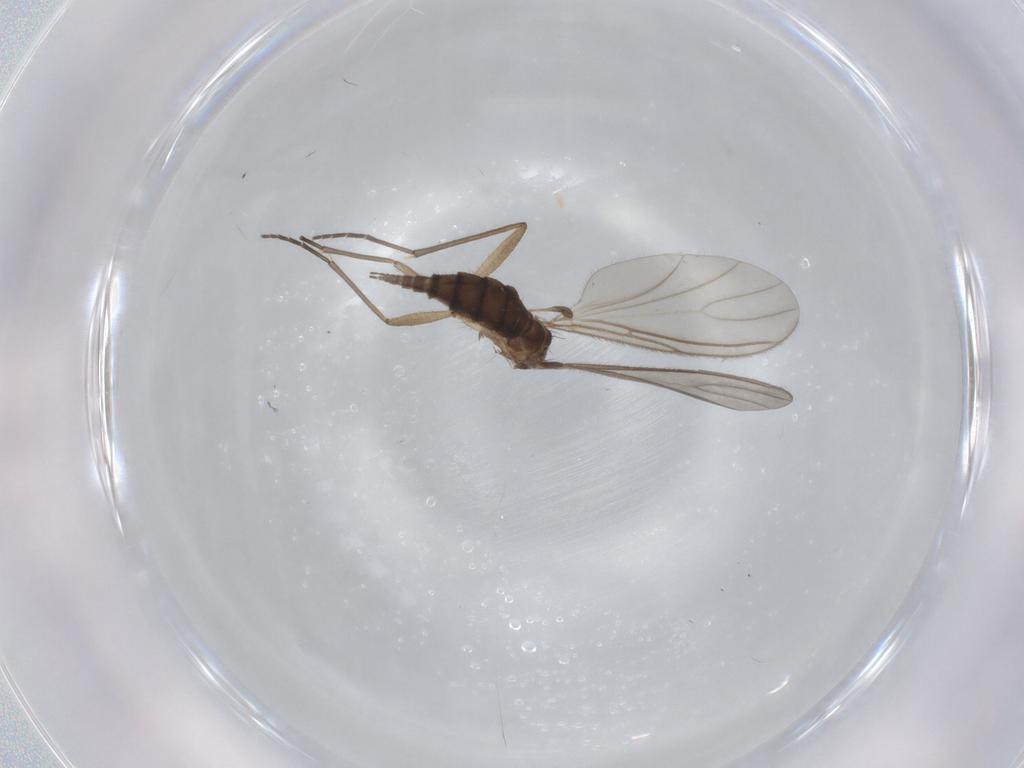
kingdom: Animalia
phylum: Arthropoda
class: Insecta
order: Diptera
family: Sciaridae
